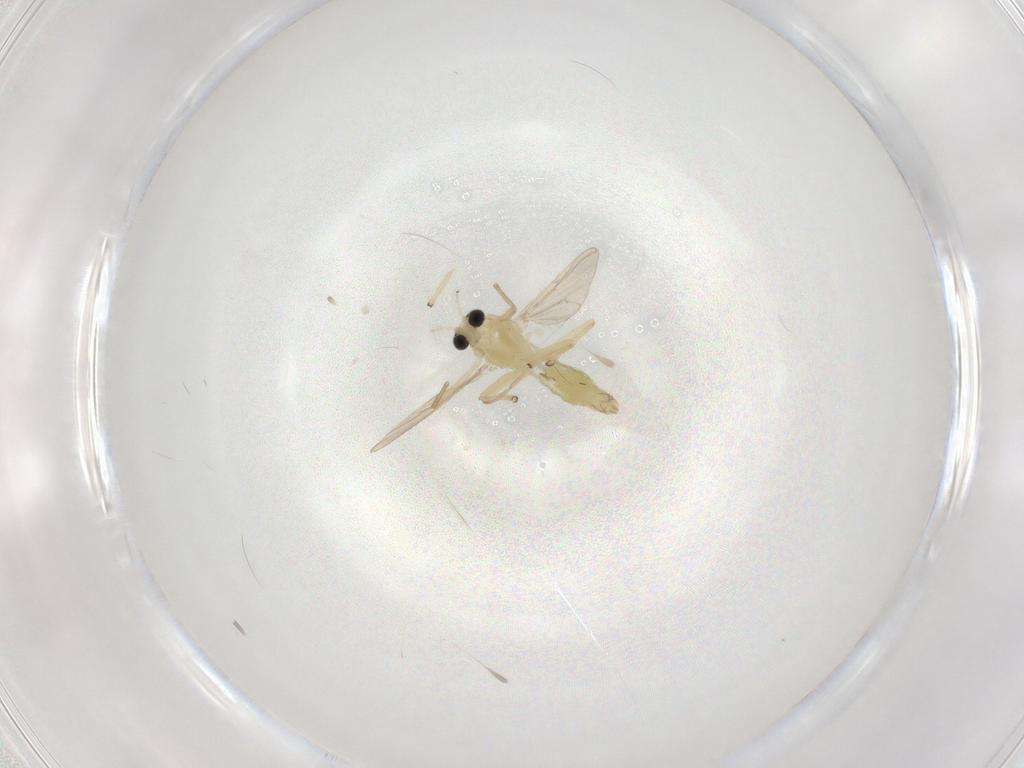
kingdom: Animalia
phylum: Arthropoda
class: Insecta
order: Diptera
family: Chironomidae
